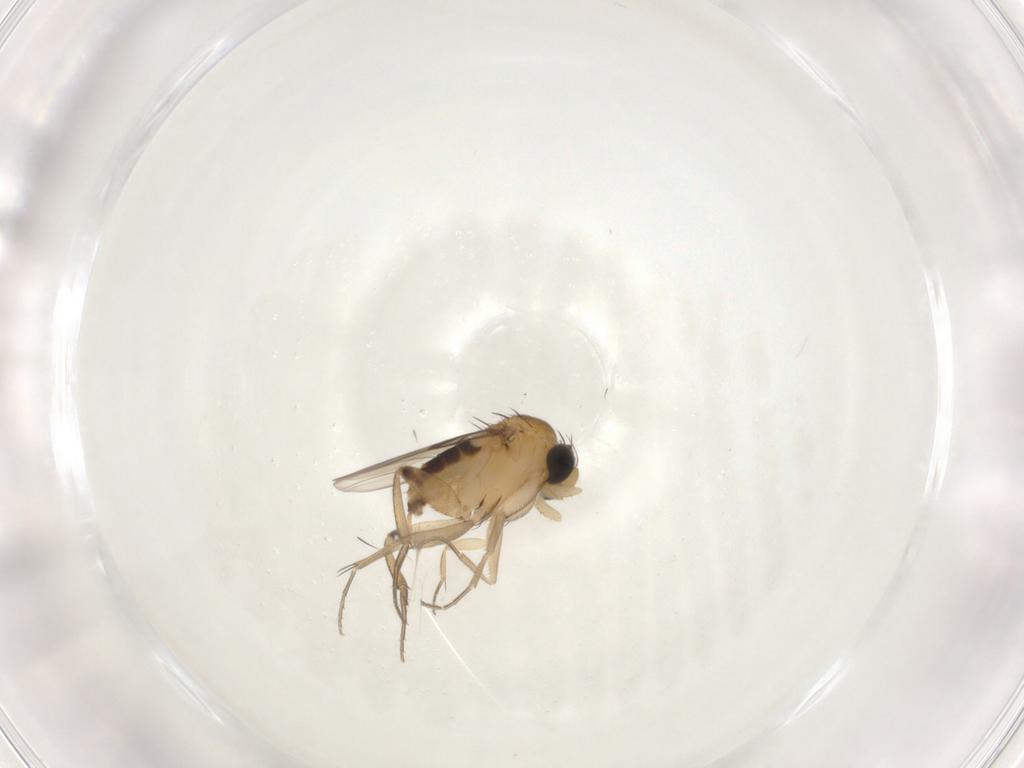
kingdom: Animalia
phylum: Arthropoda
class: Insecta
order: Diptera
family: Phoridae
